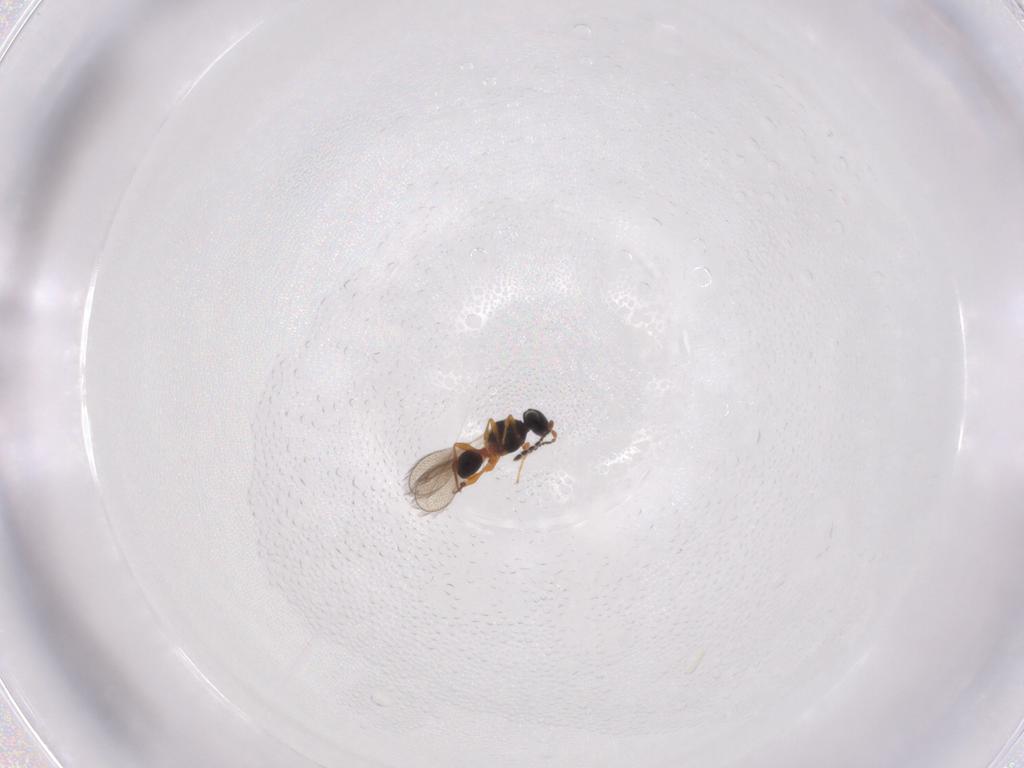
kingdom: Animalia
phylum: Arthropoda
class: Insecta
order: Hymenoptera
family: Platygastridae
